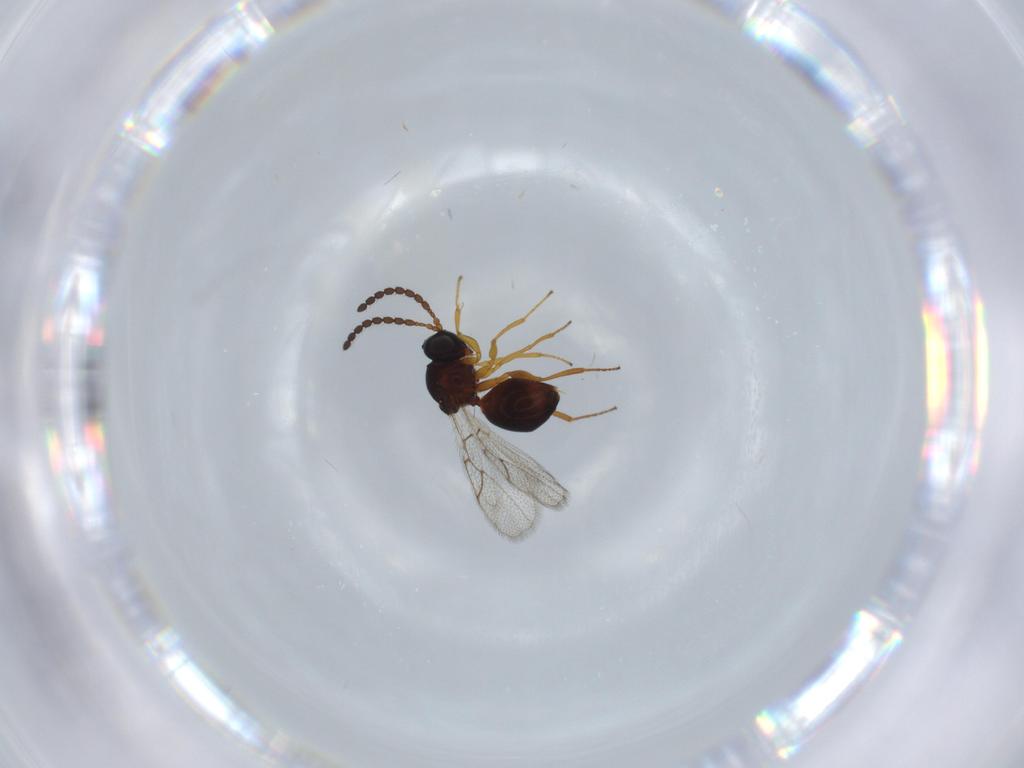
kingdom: Animalia
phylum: Arthropoda
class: Insecta
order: Hymenoptera
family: Figitidae
